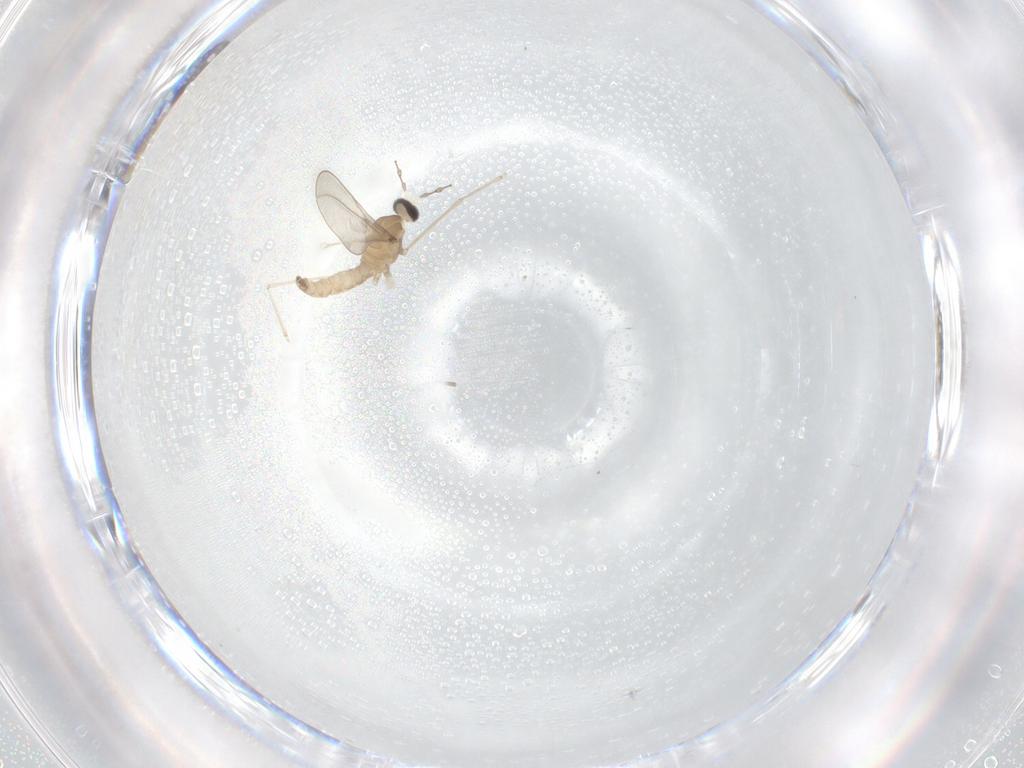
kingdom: Animalia
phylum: Arthropoda
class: Insecta
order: Diptera
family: Cecidomyiidae
